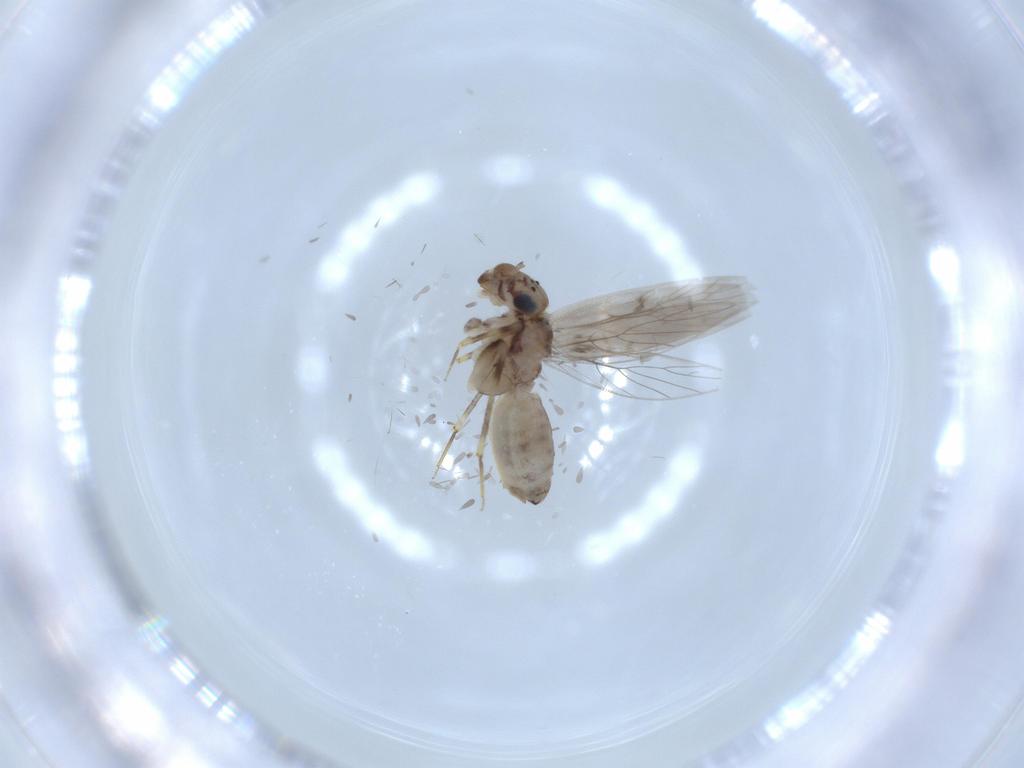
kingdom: Animalia
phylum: Arthropoda
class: Insecta
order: Psocodea
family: Lepidopsocidae
